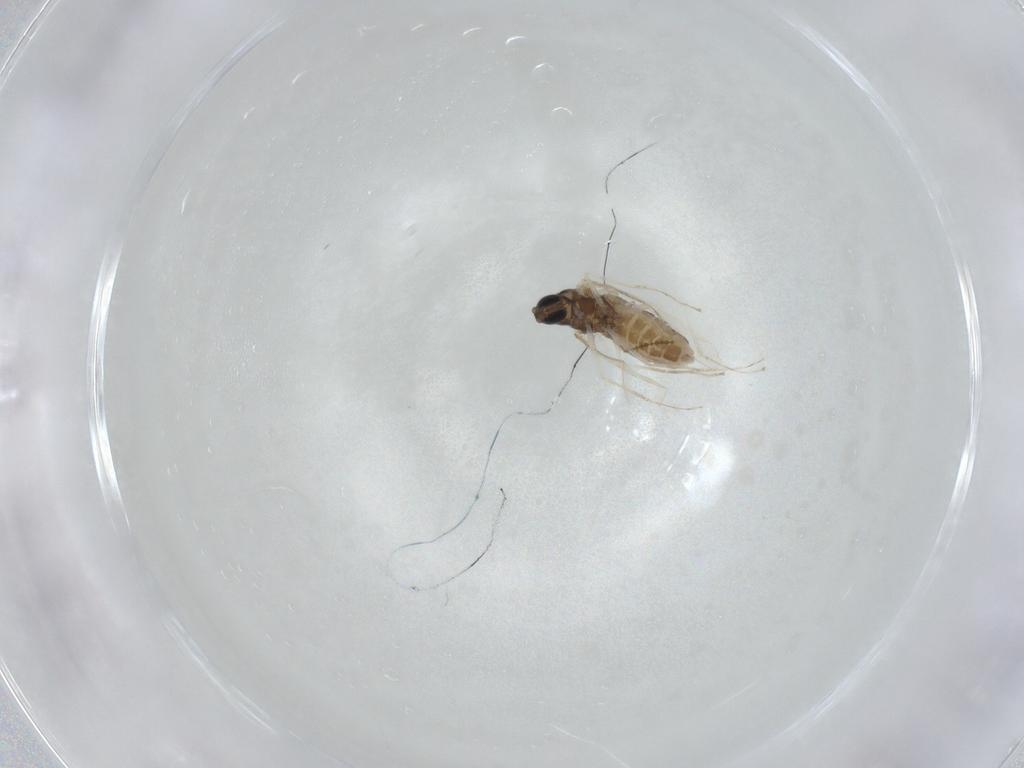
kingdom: Animalia
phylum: Arthropoda
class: Insecta
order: Diptera
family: Cecidomyiidae
